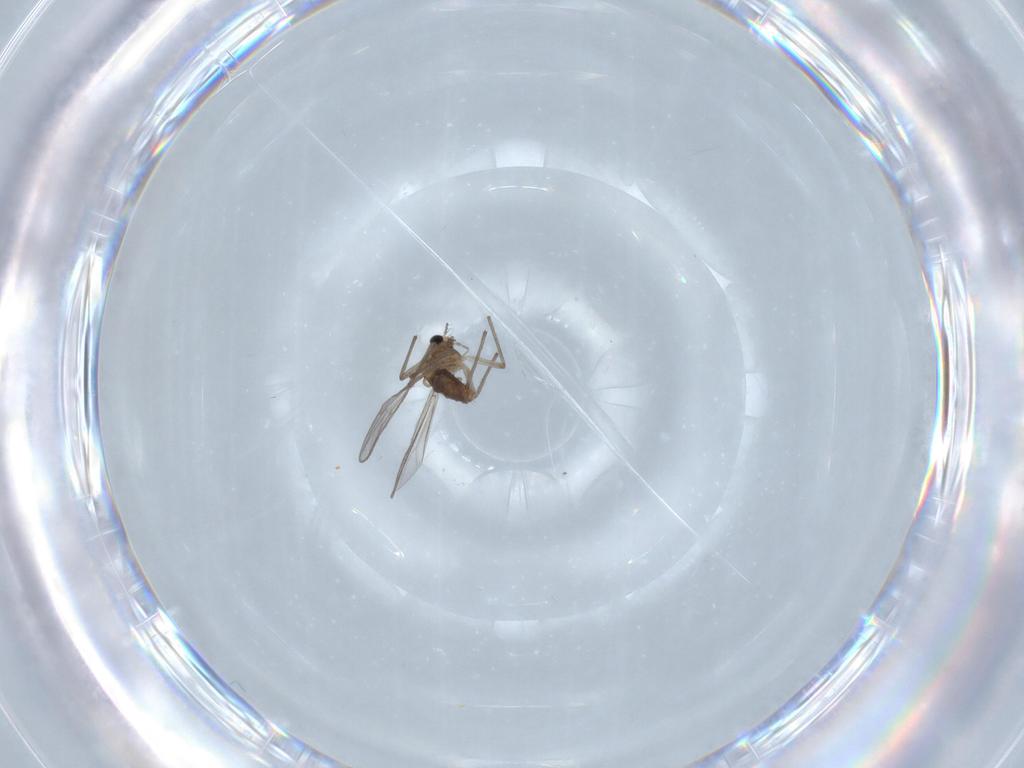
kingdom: Animalia
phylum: Arthropoda
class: Insecta
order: Diptera
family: Chironomidae
